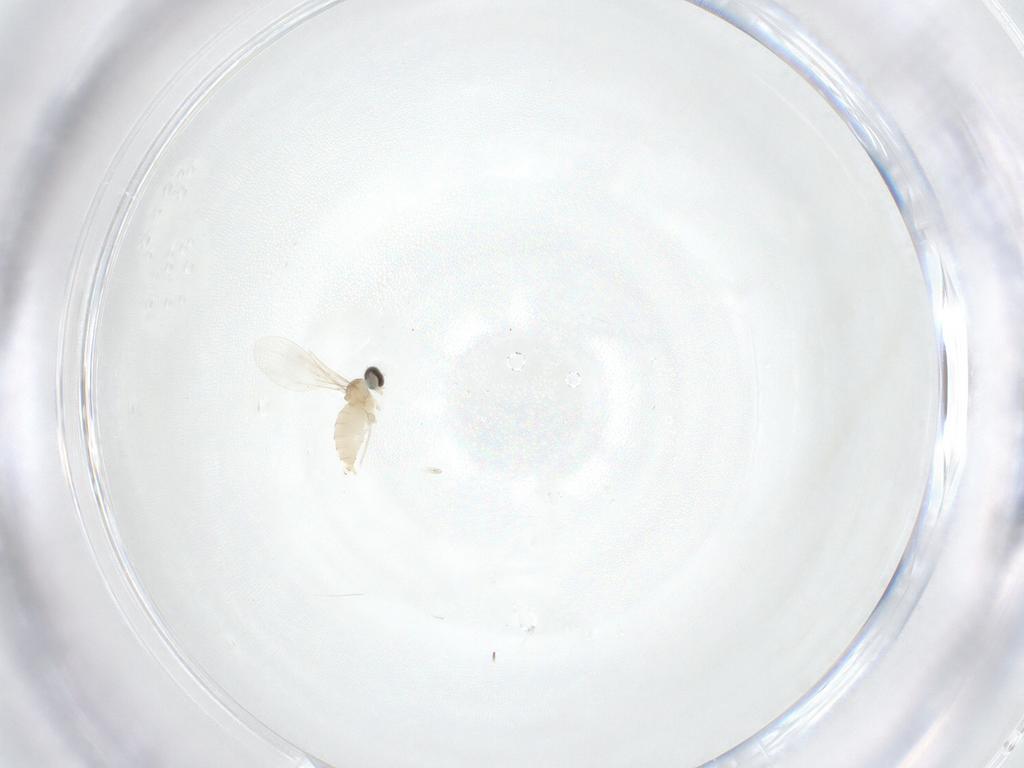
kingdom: Animalia
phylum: Arthropoda
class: Insecta
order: Diptera
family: Cecidomyiidae
